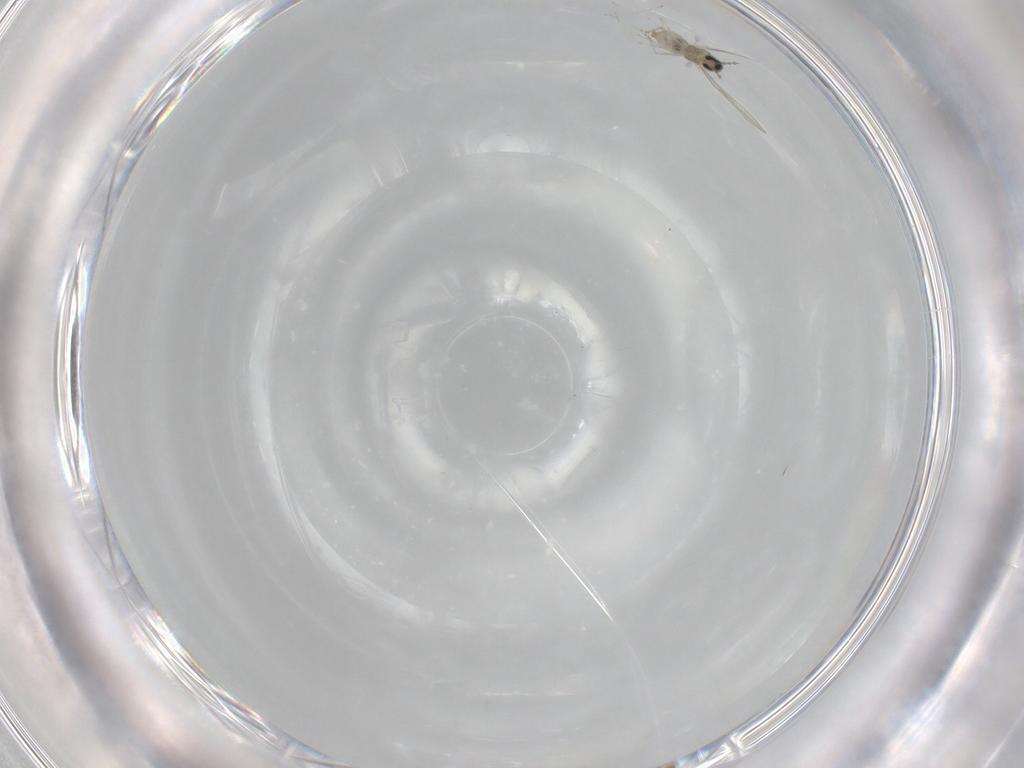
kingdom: Animalia
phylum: Arthropoda
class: Insecta
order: Diptera
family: Cecidomyiidae
